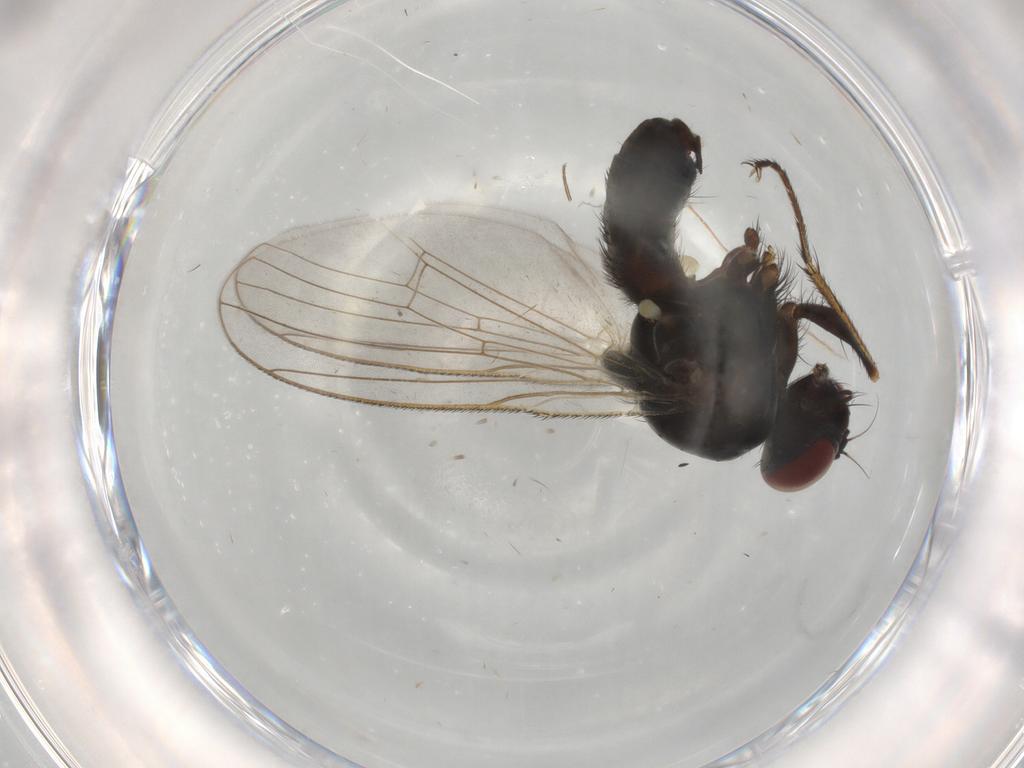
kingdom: Animalia
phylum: Arthropoda
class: Insecta
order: Diptera
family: Muscidae
